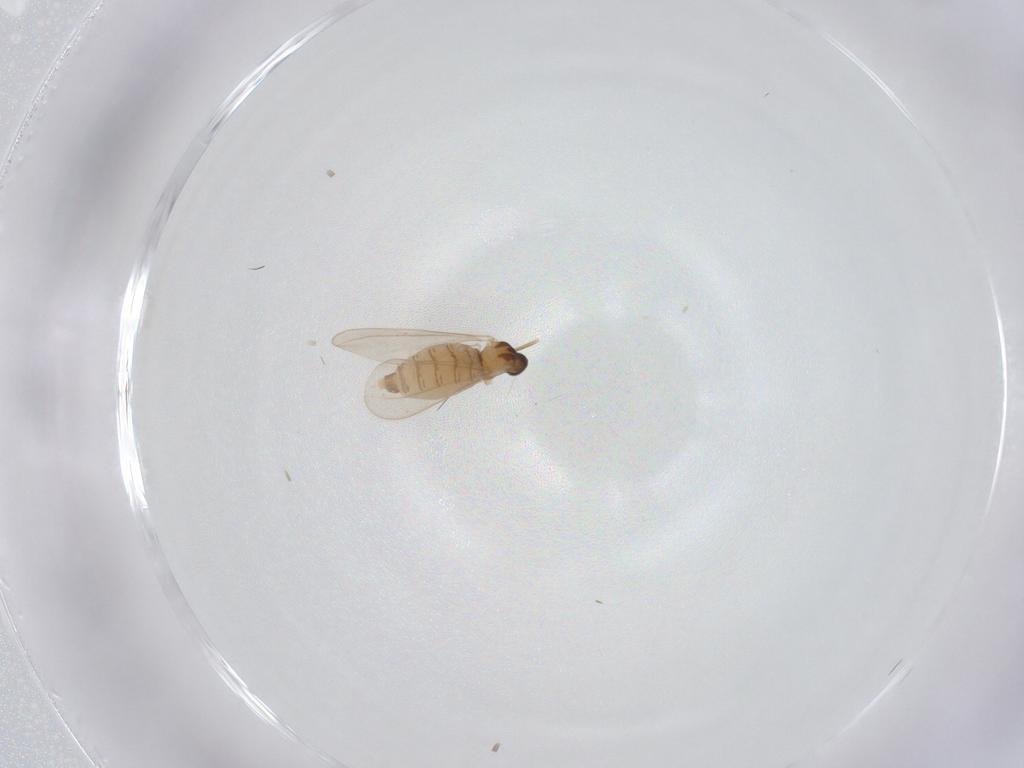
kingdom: Animalia
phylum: Arthropoda
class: Insecta
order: Diptera
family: Cecidomyiidae
